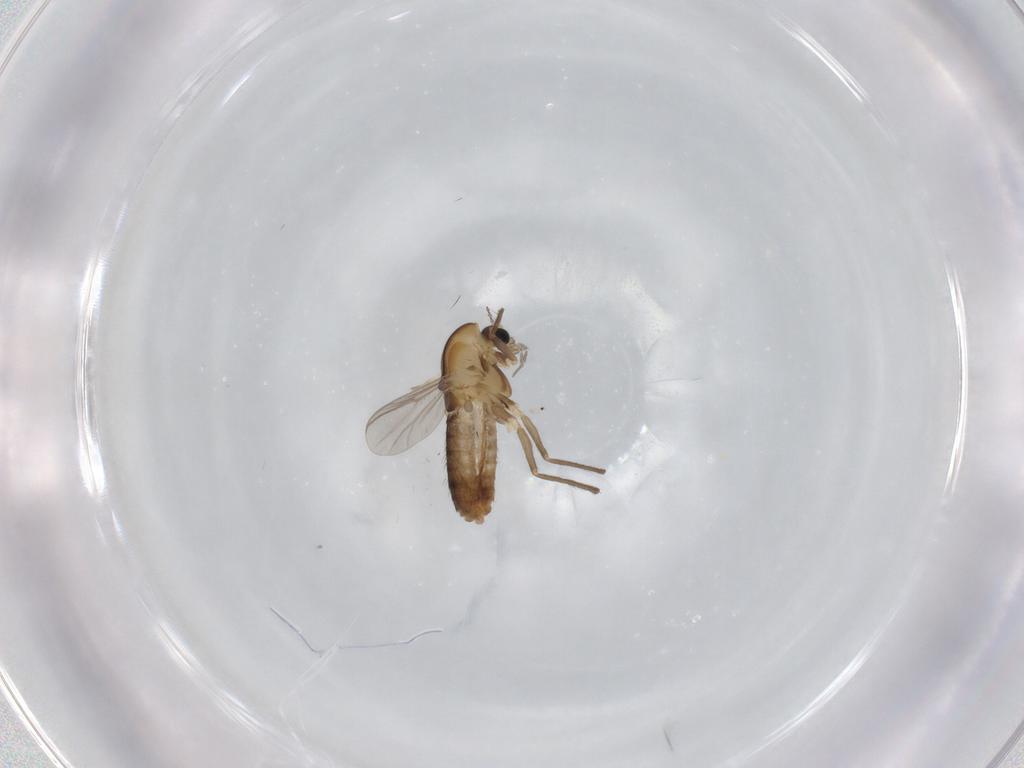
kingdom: Animalia
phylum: Arthropoda
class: Insecta
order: Diptera
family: Chironomidae
